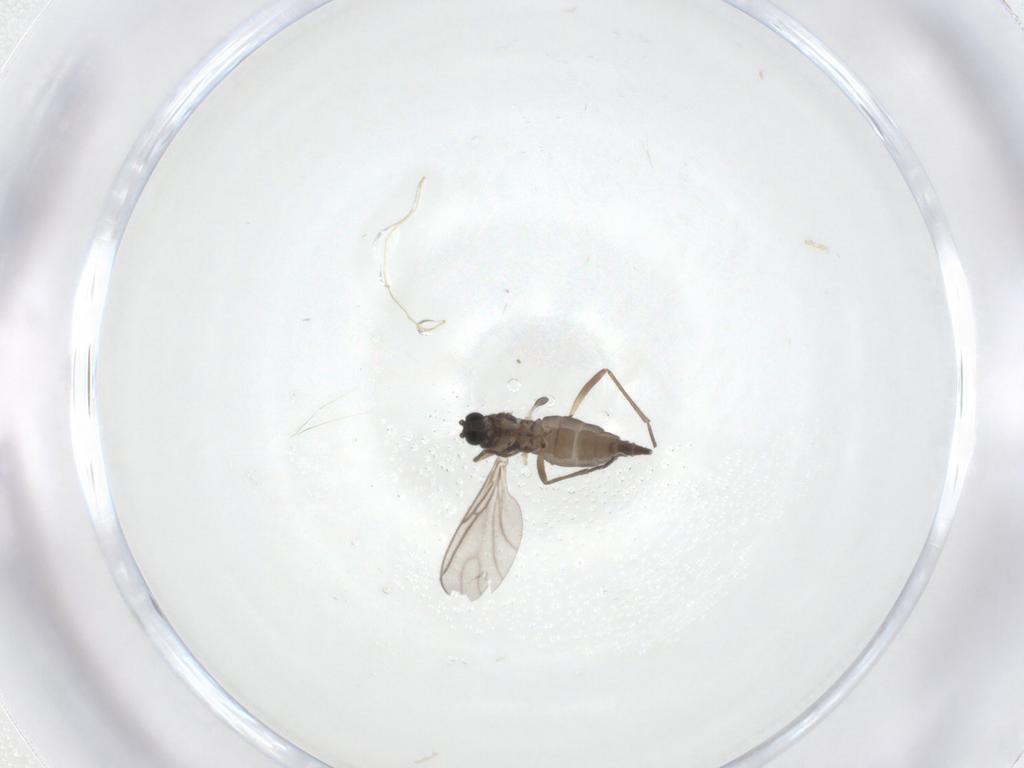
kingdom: Animalia
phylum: Arthropoda
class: Insecta
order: Diptera
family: Sciaridae
